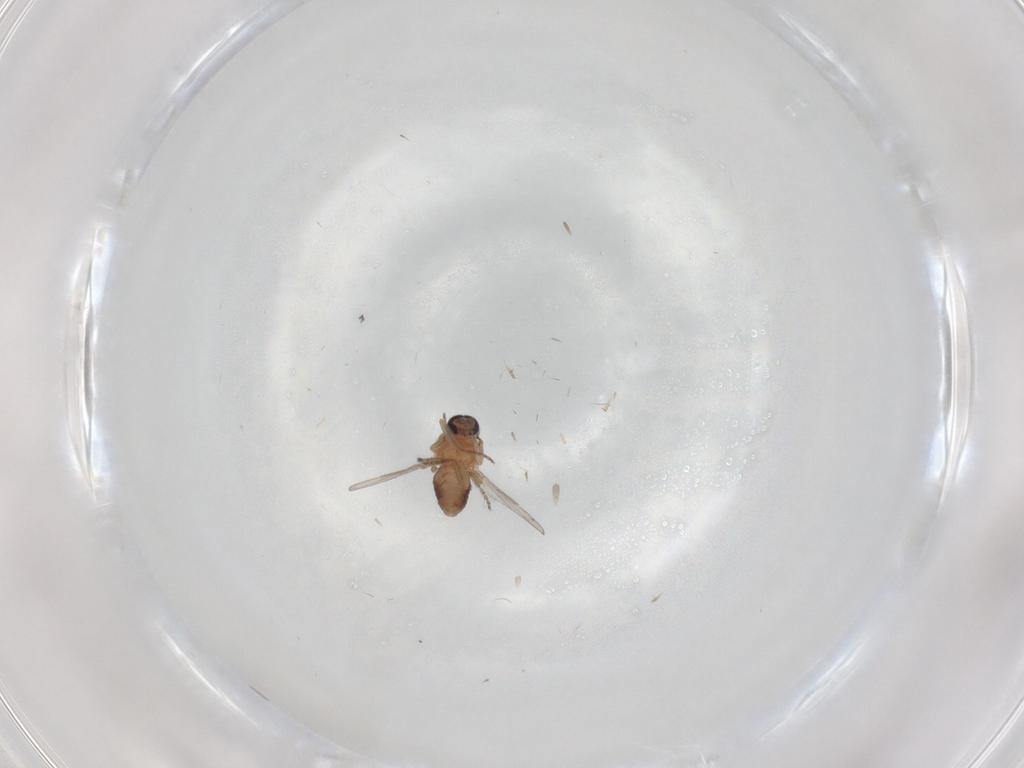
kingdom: Animalia
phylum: Arthropoda
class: Insecta
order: Diptera
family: Ceratopogonidae
